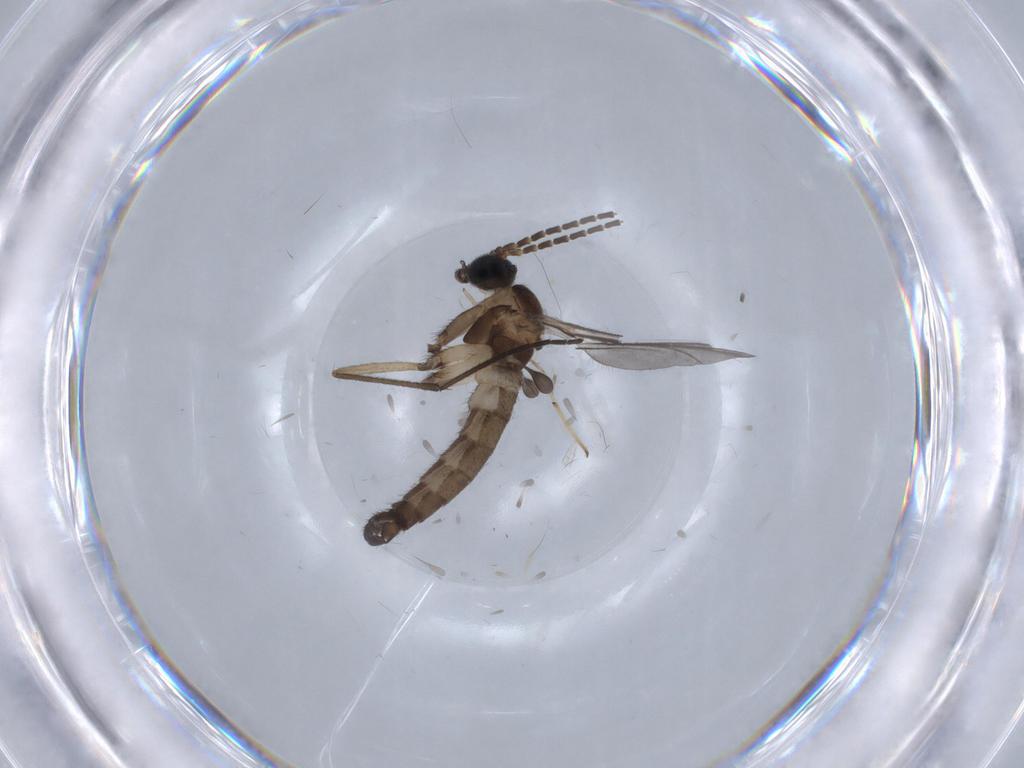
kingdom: Animalia
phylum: Arthropoda
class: Insecta
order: Diptera
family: Sciaridae
